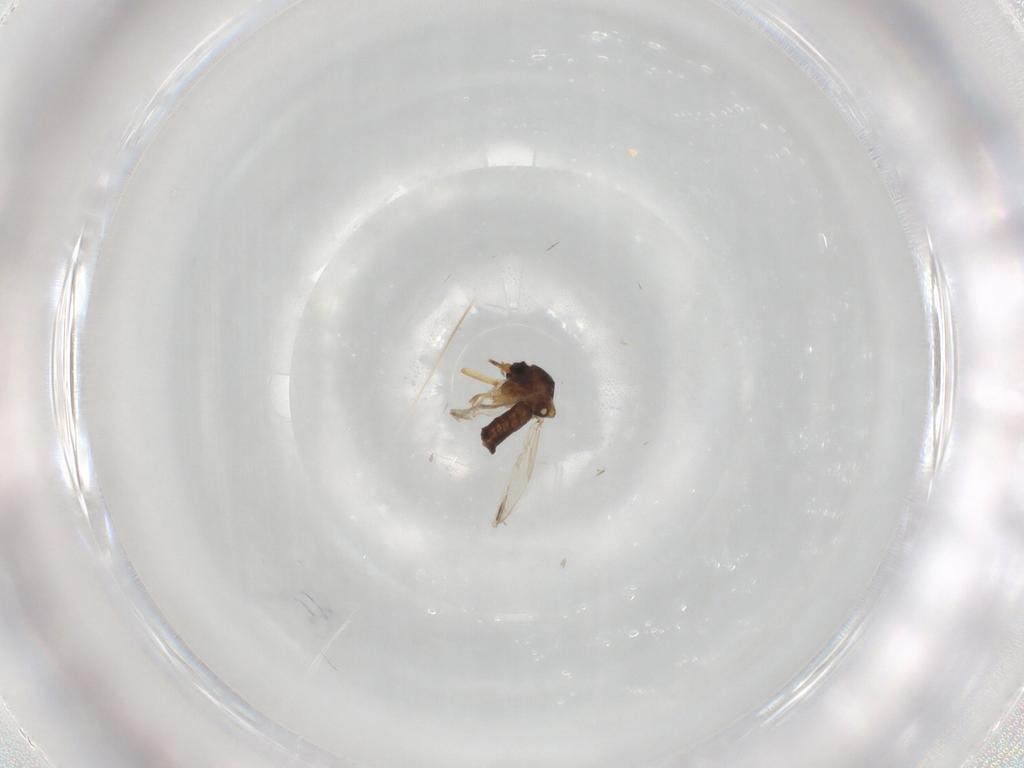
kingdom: Animalia
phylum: Arthropoda
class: Insecta
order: Diptera
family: Ceratopogonidae
